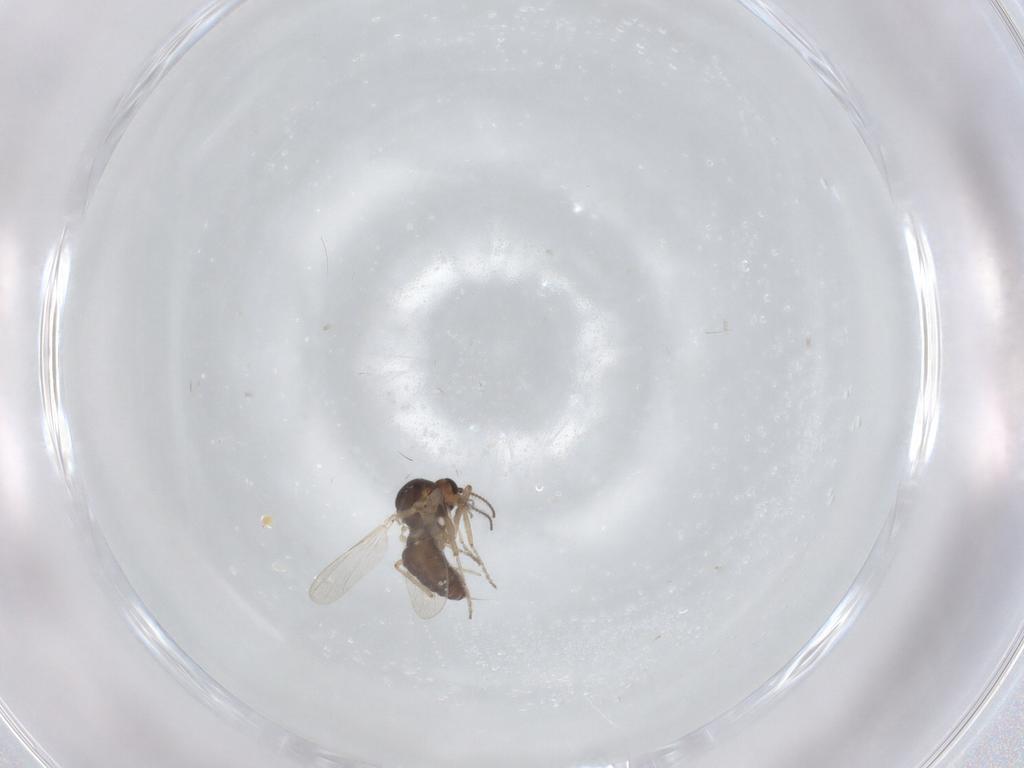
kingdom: Animalia
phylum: Arthropoda
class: Insecta
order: Diptera
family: Ceratopogonidae
